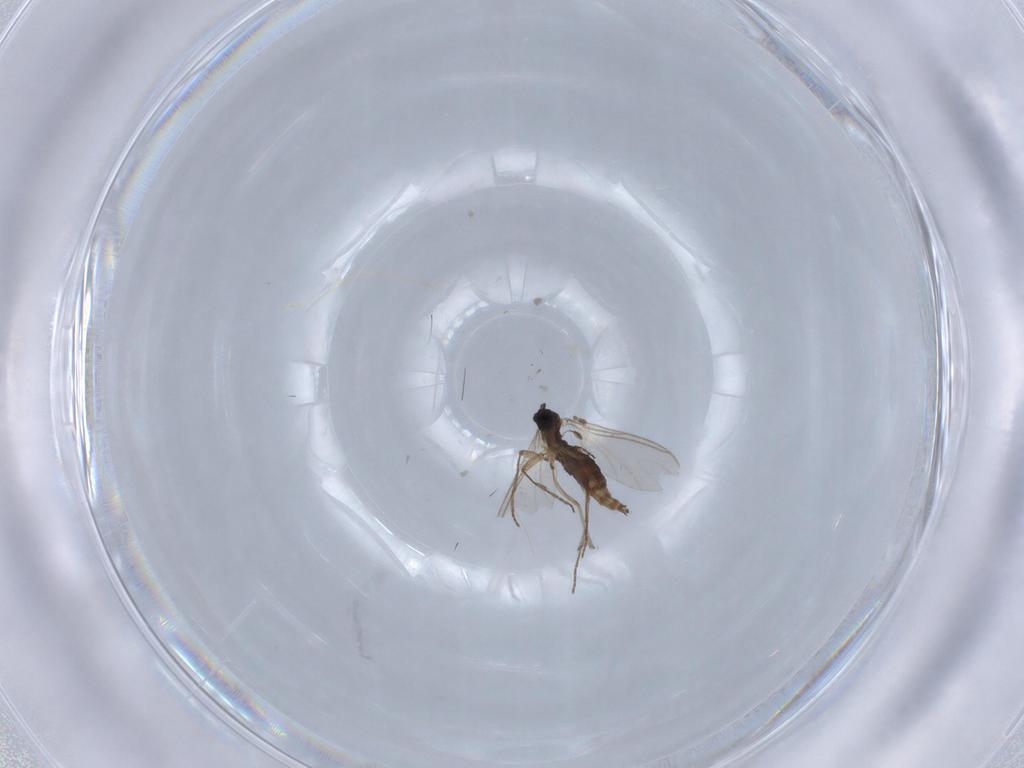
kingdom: Animalia
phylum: Arthropoda
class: Insecta
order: Diptera
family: Sciaridae
